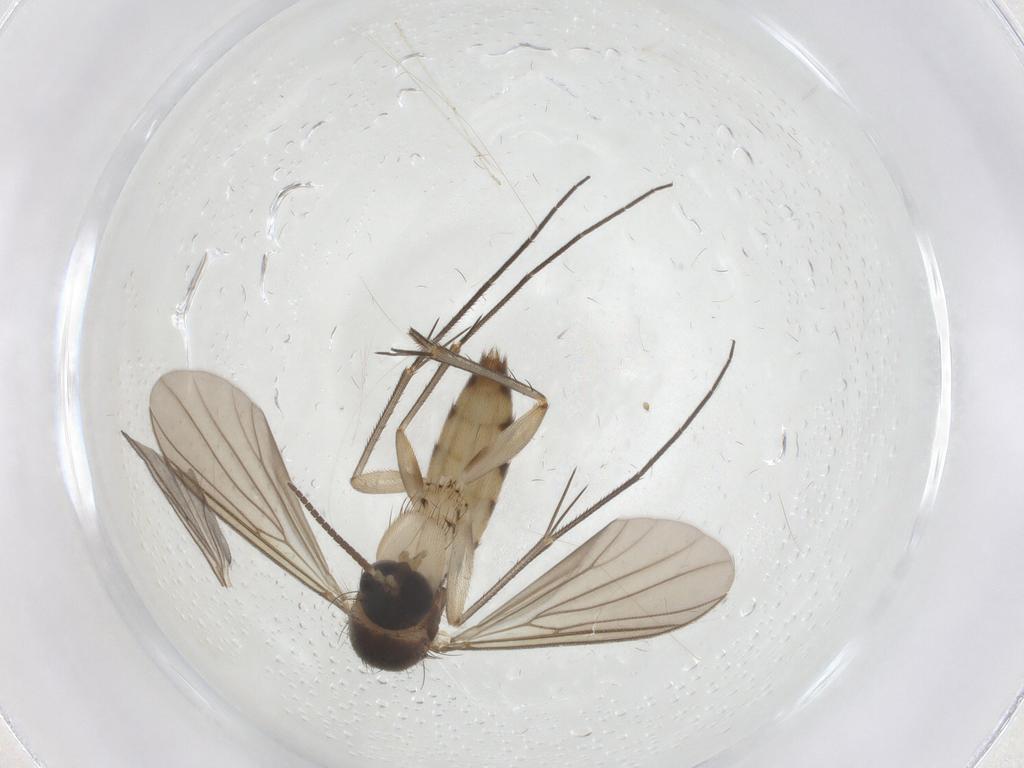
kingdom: Animalia
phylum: Arthropoda
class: Insecta
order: Diptera
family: Mycetophilidae
